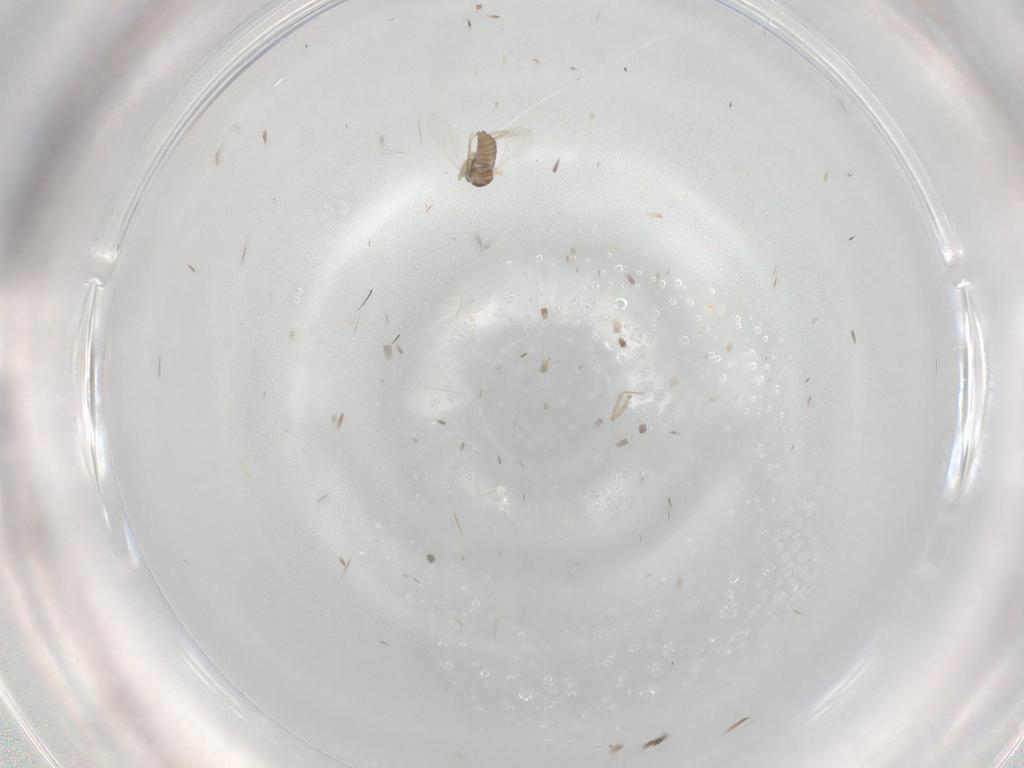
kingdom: Animalia
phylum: Arthropoda
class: Insecta
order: Diptera
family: Cecidomyiidae
